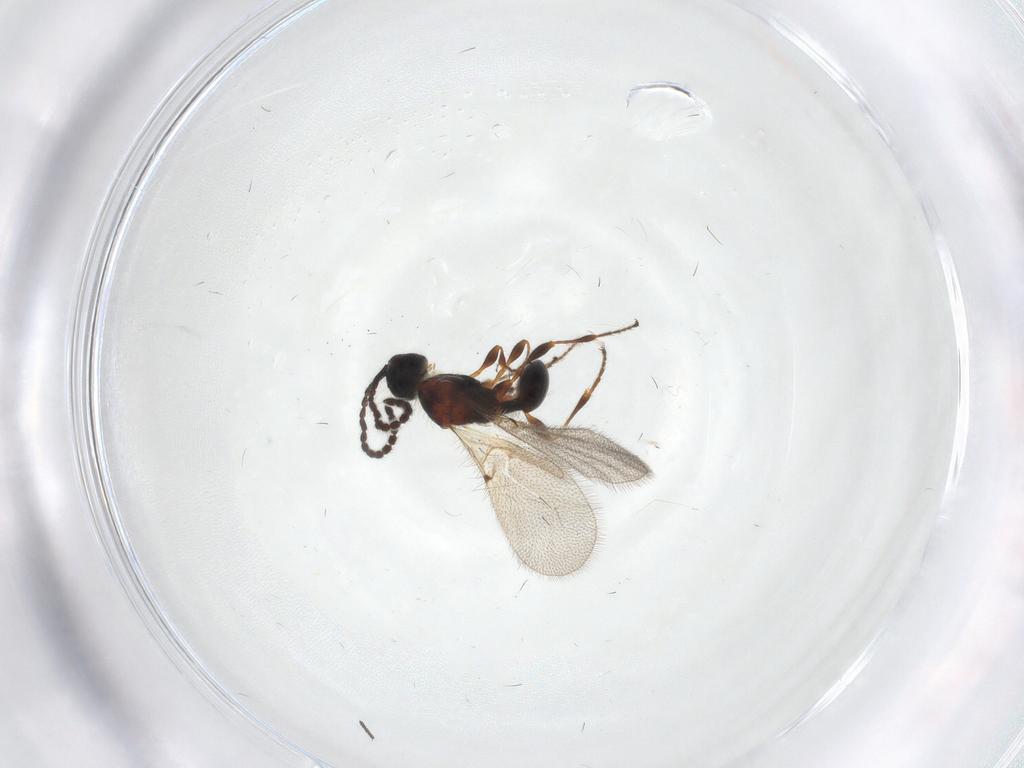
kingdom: Animalia
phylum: Arthropoda
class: Insecta
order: Hymenoptera
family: Diapriidae
